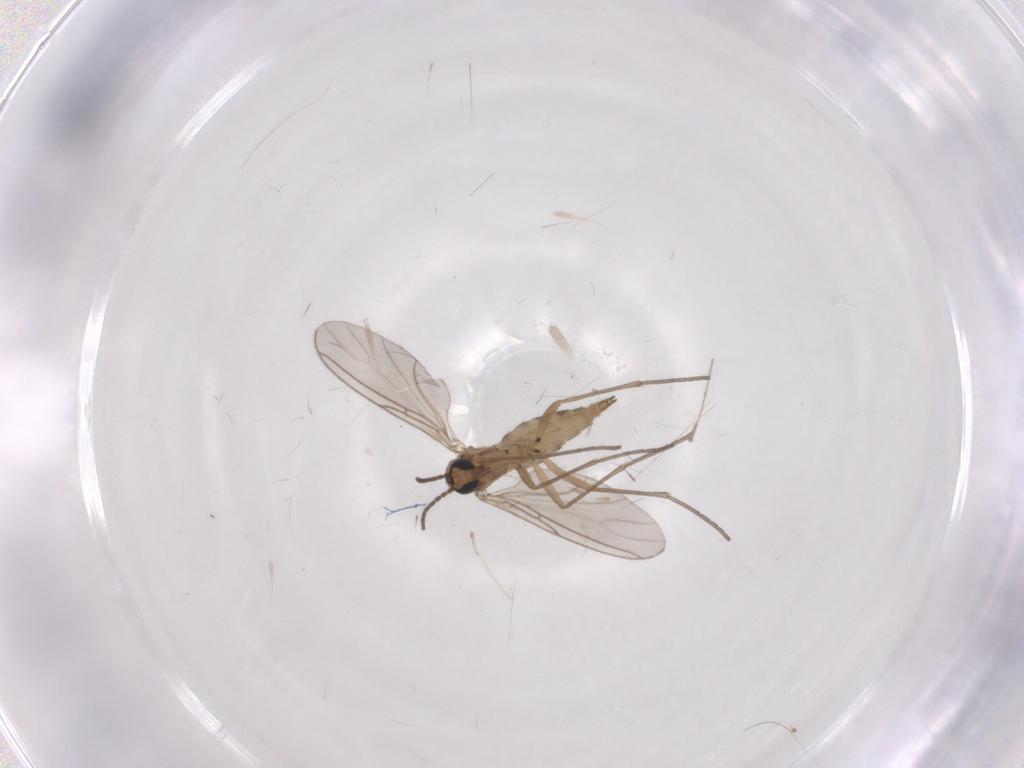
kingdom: Animalia
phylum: Arthropoda
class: Insecta
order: Diptera
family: Sciaridae
